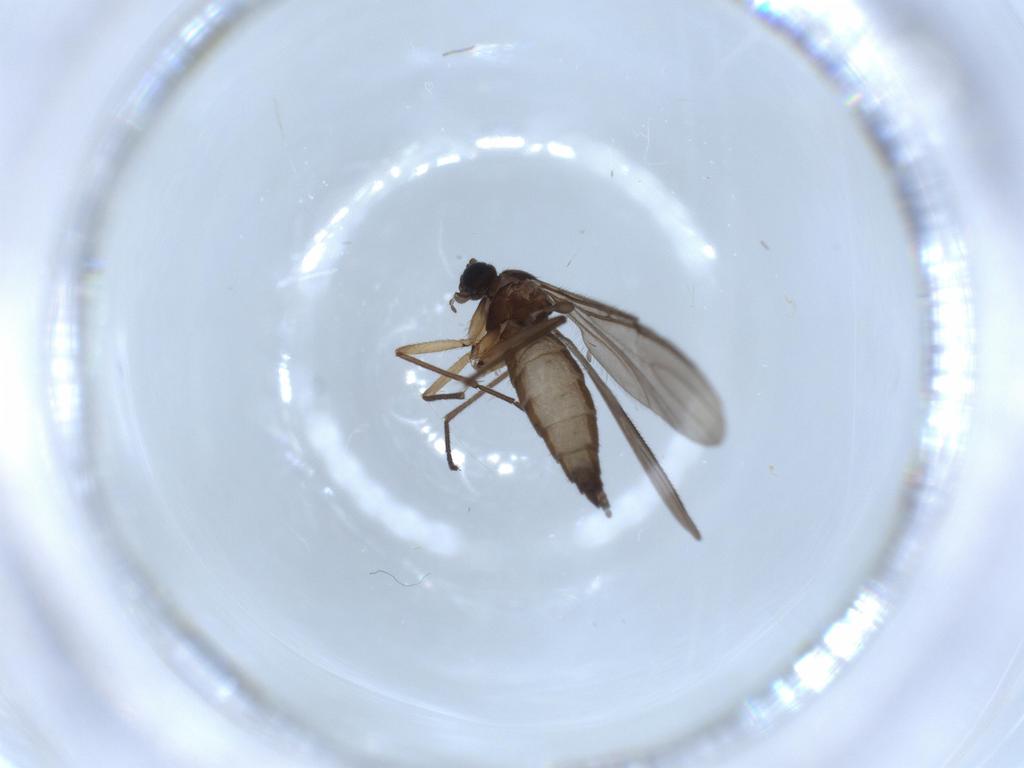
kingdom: Animalia
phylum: Arthropoda
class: Insecta
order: Diptera
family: Sciaridae
